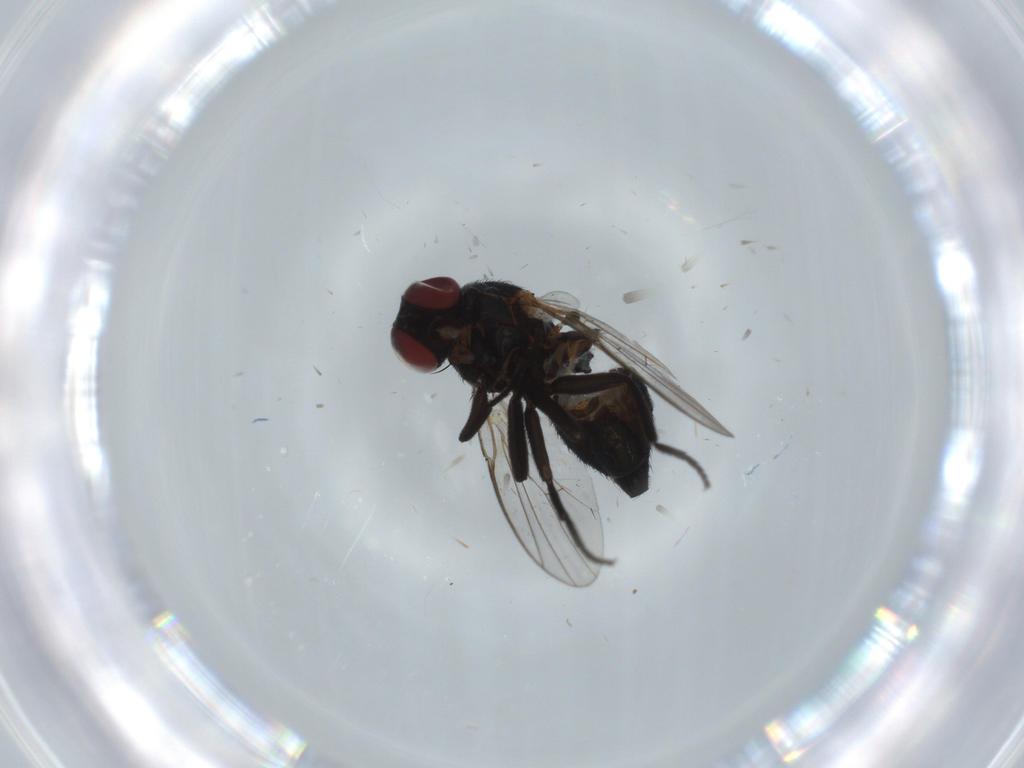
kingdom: Animalia
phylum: Arthropoda
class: Insecta
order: Diptera
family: Agromyzidae
